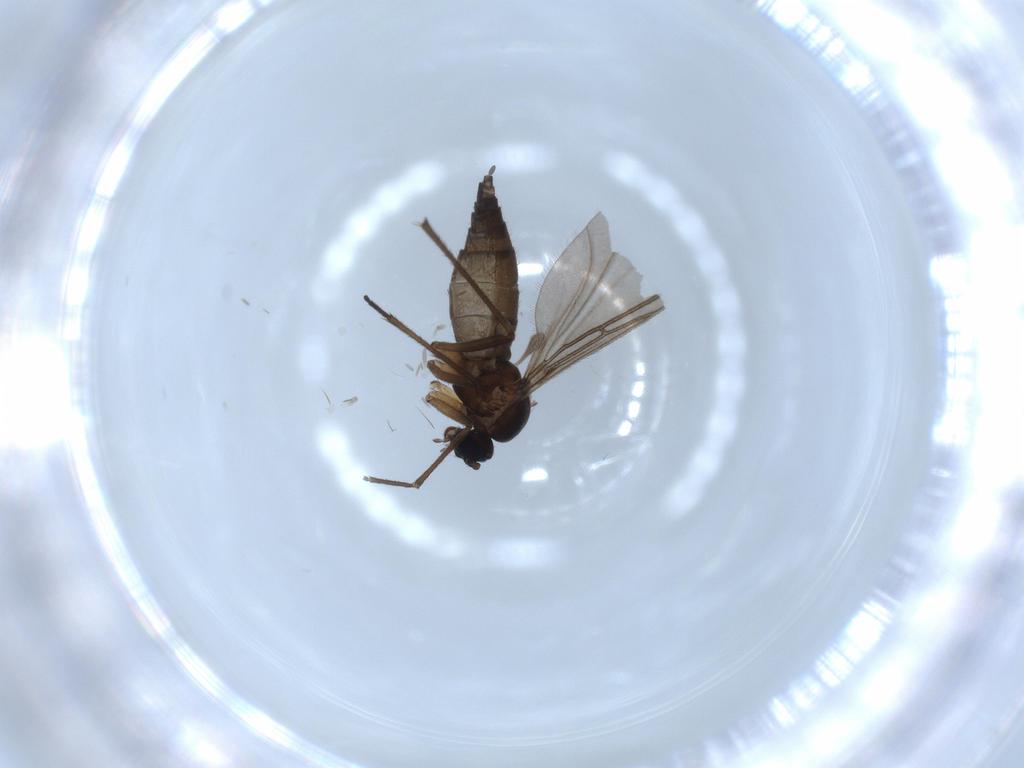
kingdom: Animalia
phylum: Arthropoda
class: Insecta
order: Diptera
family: Sciaridae
